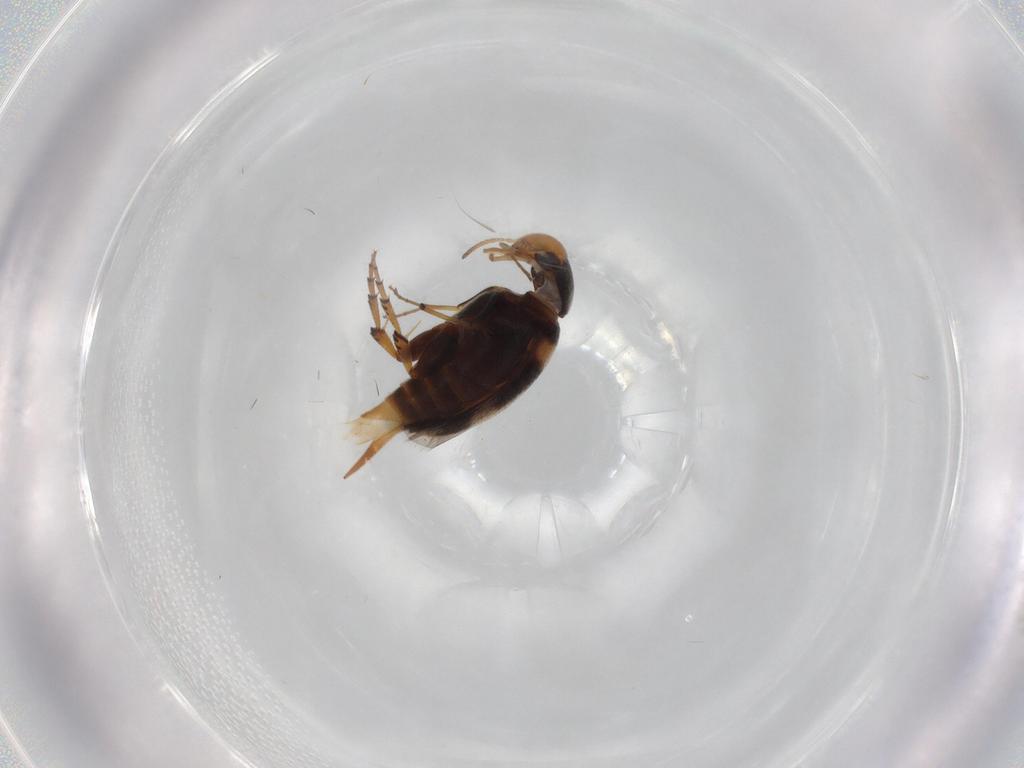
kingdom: Animalia
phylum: Arthropoda
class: Insecta
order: Coleoptera
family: Mordellidae
